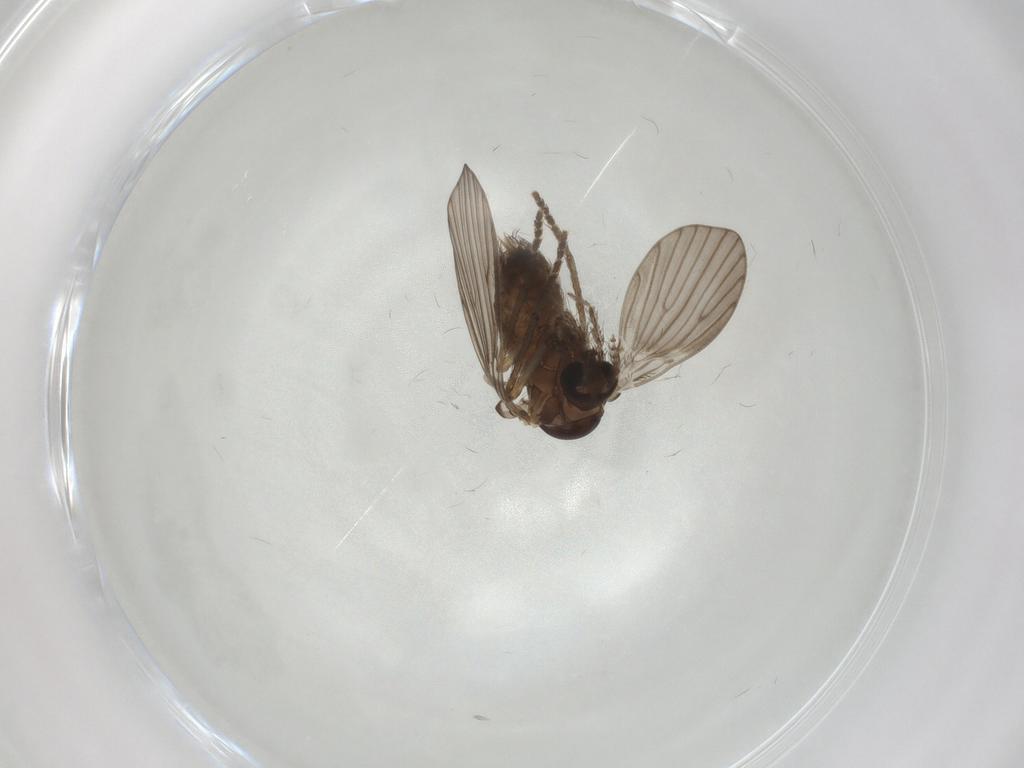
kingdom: Animalia
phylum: Arthropoda
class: Insecta
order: Diptera
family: Psychodidae
